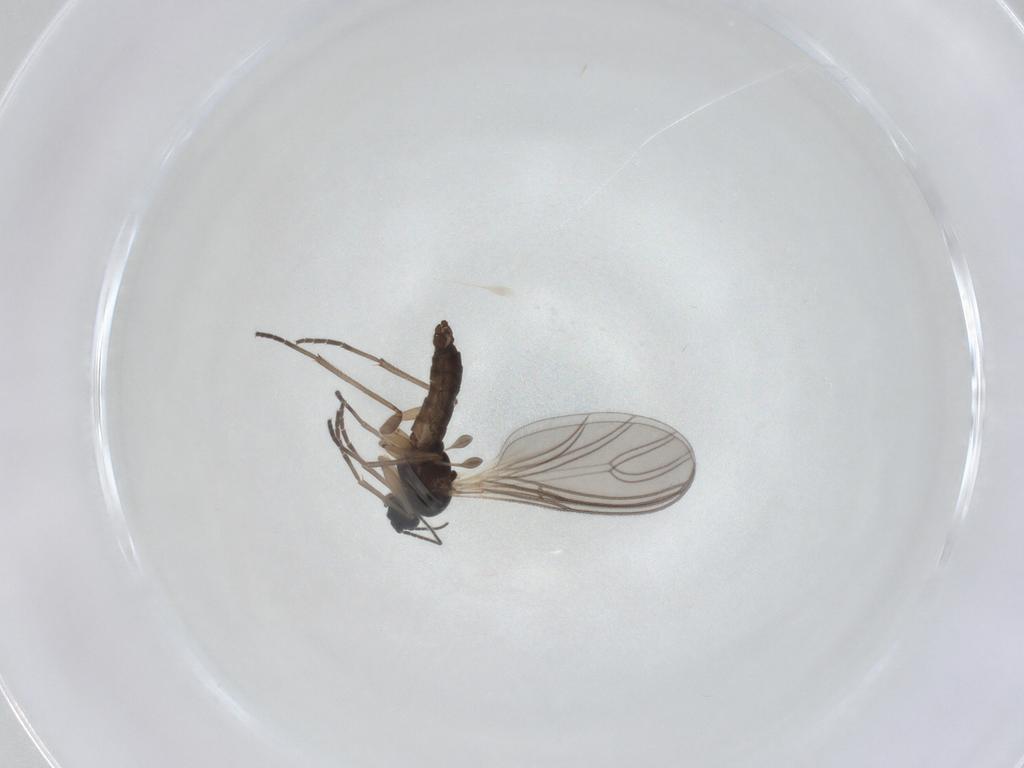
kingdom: Animalia
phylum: Arthropoda
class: Insecta
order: Diptera
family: Sciaridae
